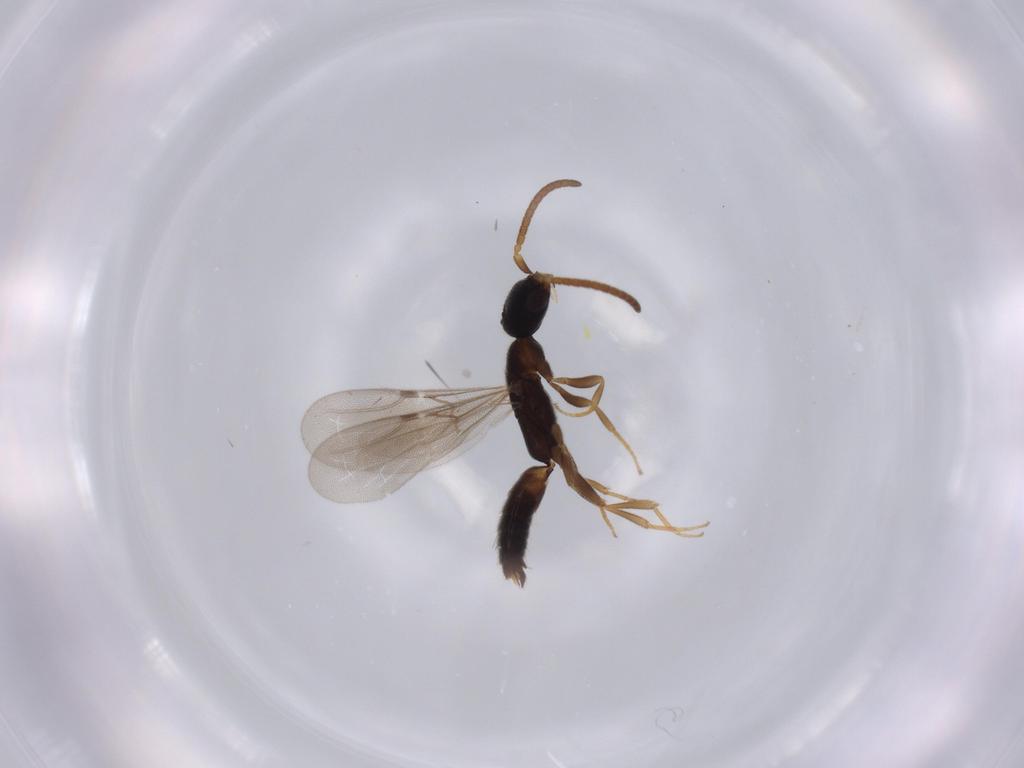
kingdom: Animalia
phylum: Arthropoda
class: Insecta
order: Hymenoptera
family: Bethylidae
